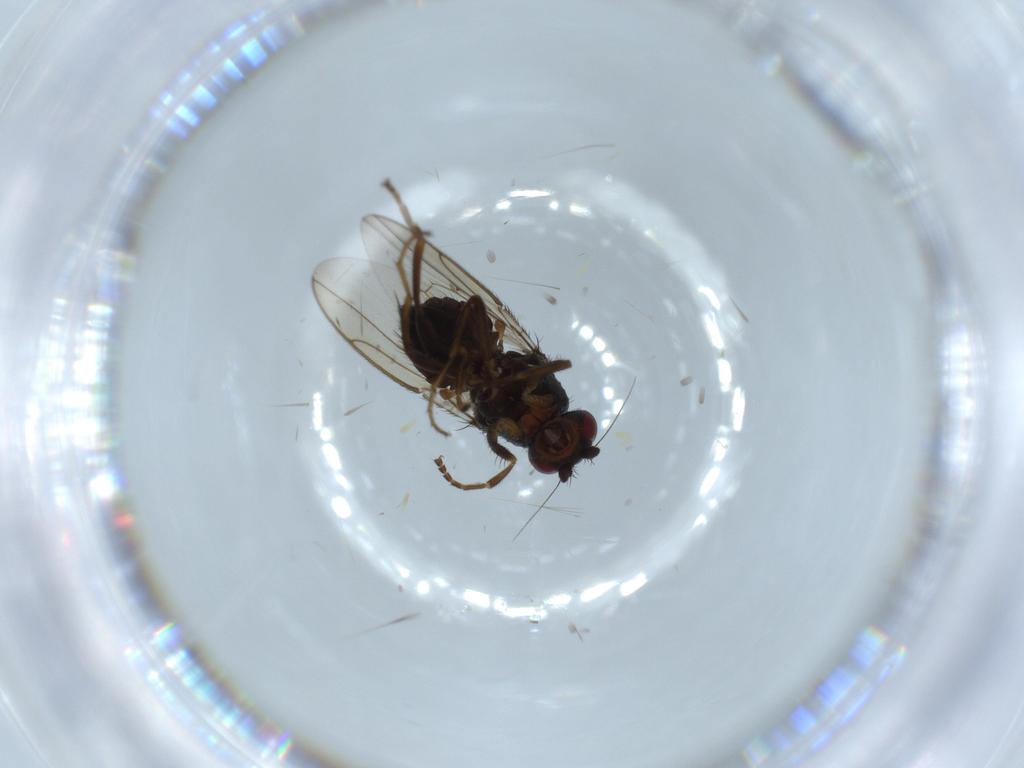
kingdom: Animalia
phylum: Arthropoda
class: Insecta
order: Diptera
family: Sphaeroceridae
